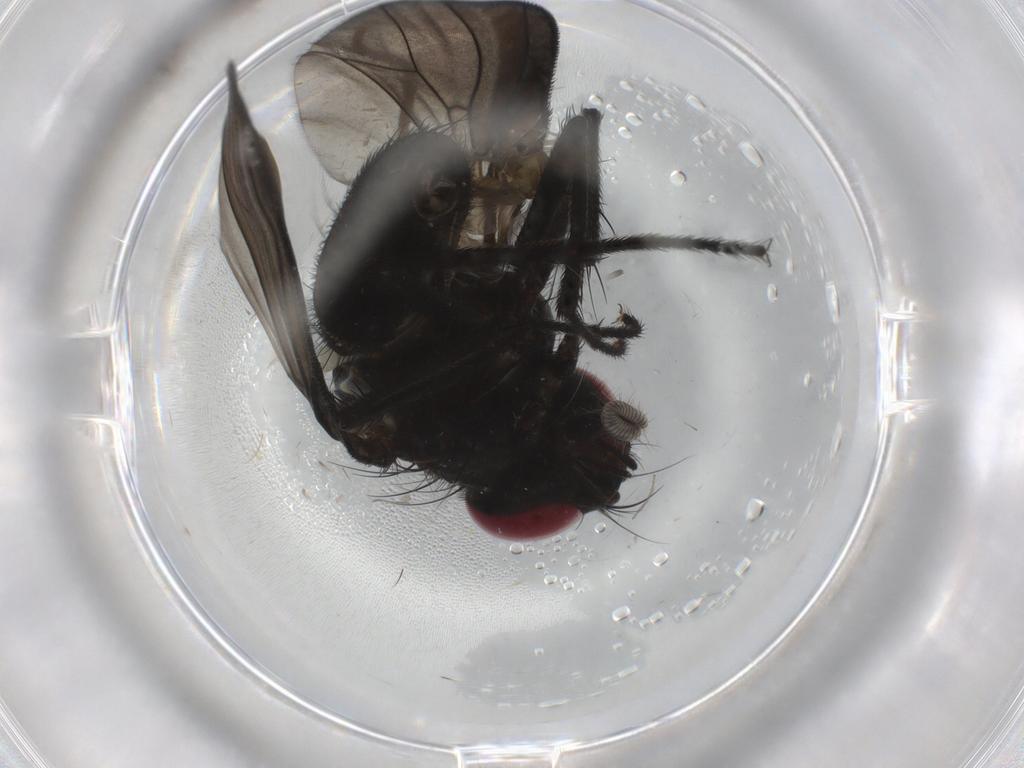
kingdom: Animalia
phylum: Arthropoda
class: Insecta
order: Diptera
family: Fannia
